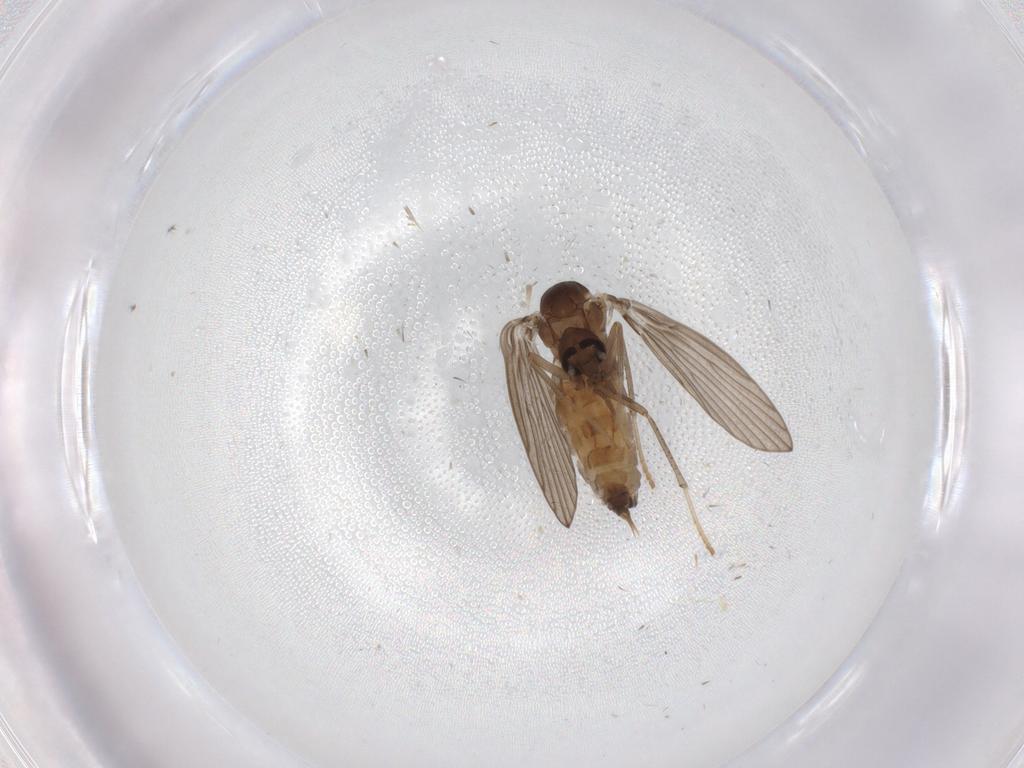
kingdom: Animalia
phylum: Arthropoda
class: Insecta
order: Diptera
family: Psychodidae
